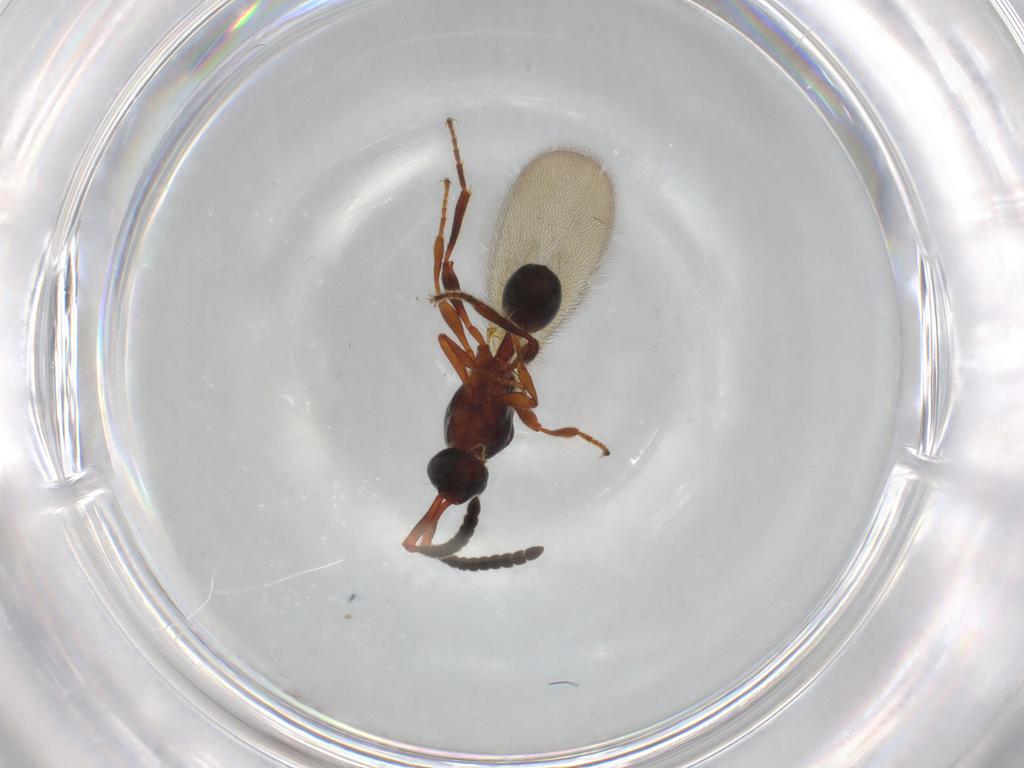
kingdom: Animalia
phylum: Arthropoda
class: Insecta
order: Hymenoptera
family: Diapriidae
